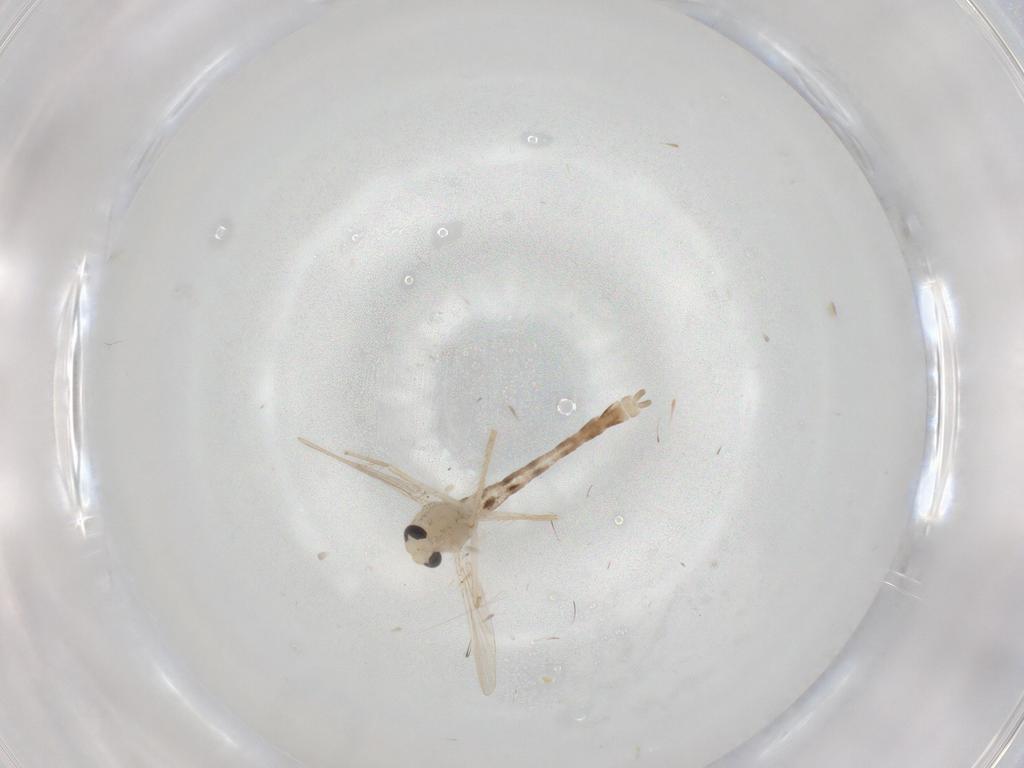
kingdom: Animalia
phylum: Arthropoda
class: Insecta
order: Diptera
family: Chironomidae
